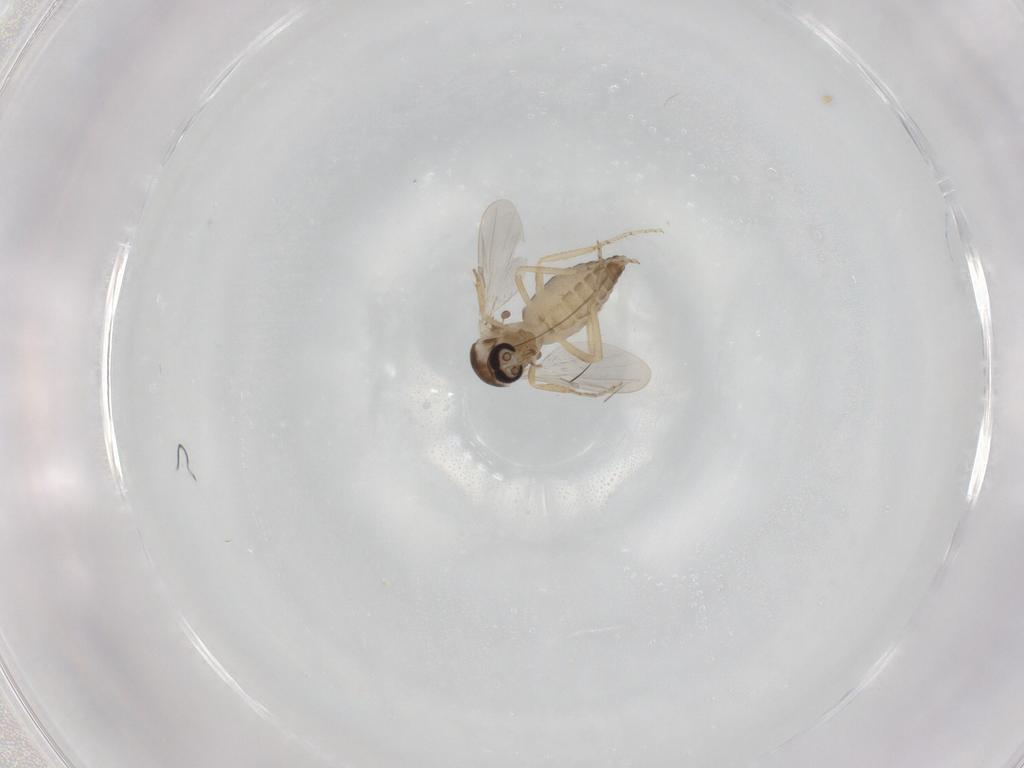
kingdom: Animalia
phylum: Arthropoda
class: Insecta
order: Diptera
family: Ceratopogonidae
